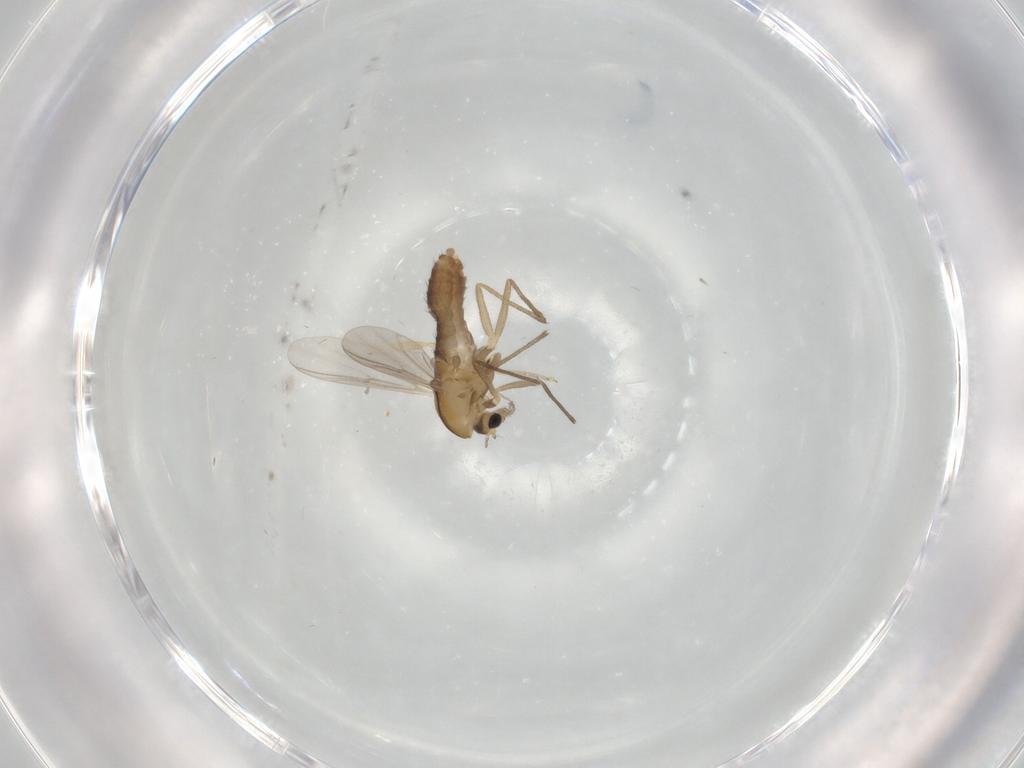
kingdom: Animalia
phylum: Arthropoda
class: Insecta
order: Diptera
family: Chironomidae
